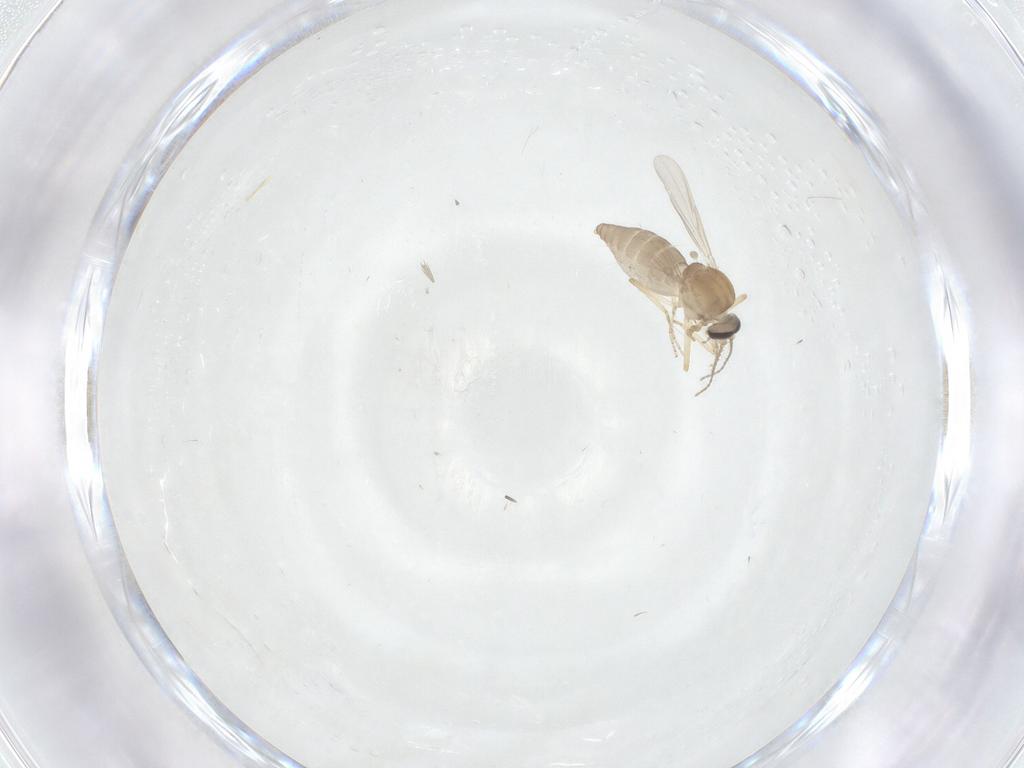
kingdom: Animalia
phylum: Arthropoda
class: Insecta
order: Diptera
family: Ceratopogonidae
